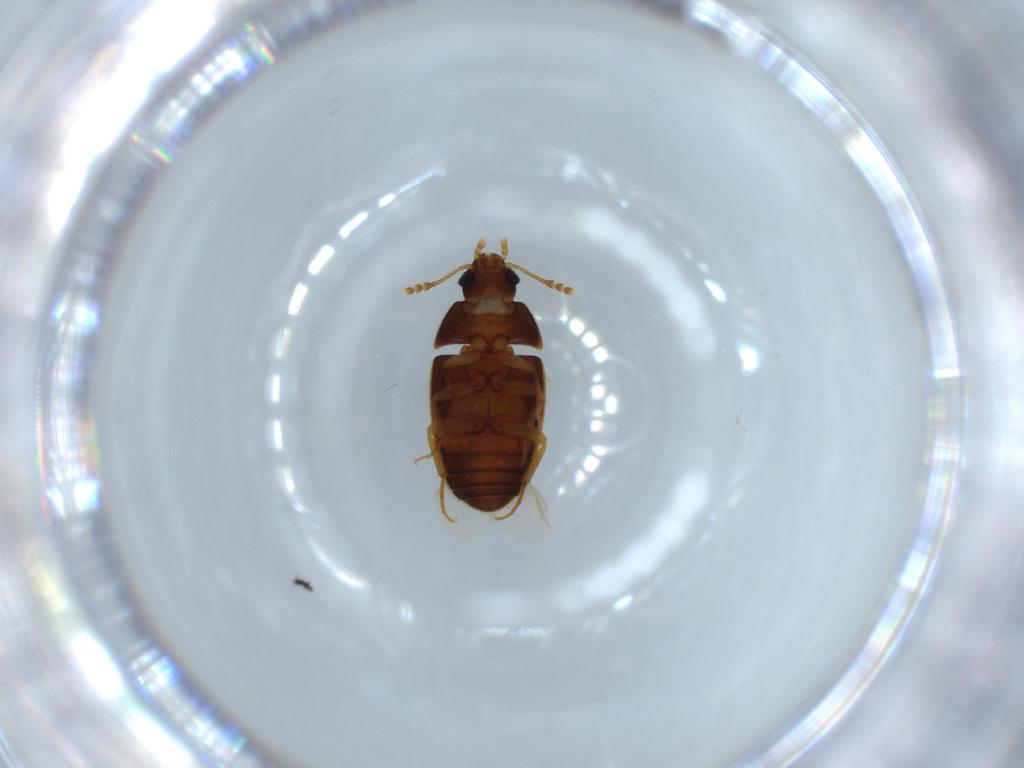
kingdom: Animalia
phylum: Arthropoda
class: Insecta
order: Coleoptera
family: Mycetophagidae
